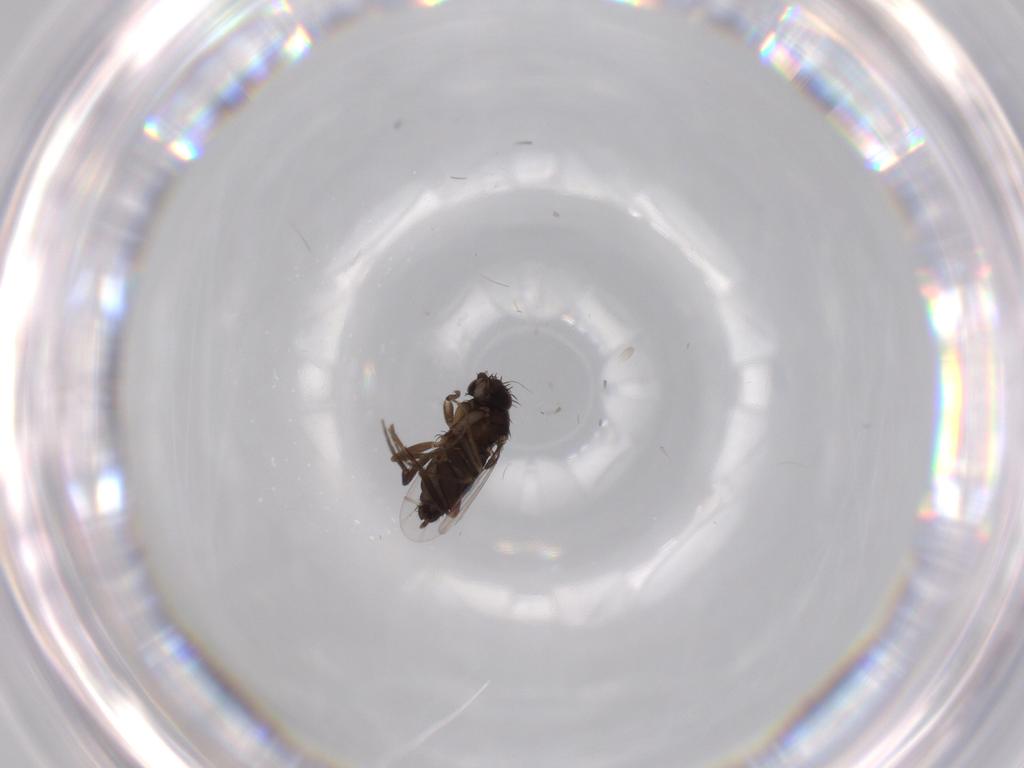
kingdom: Animalia
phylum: Arthropoda
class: Insecta
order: Diptera
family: Phoridae
